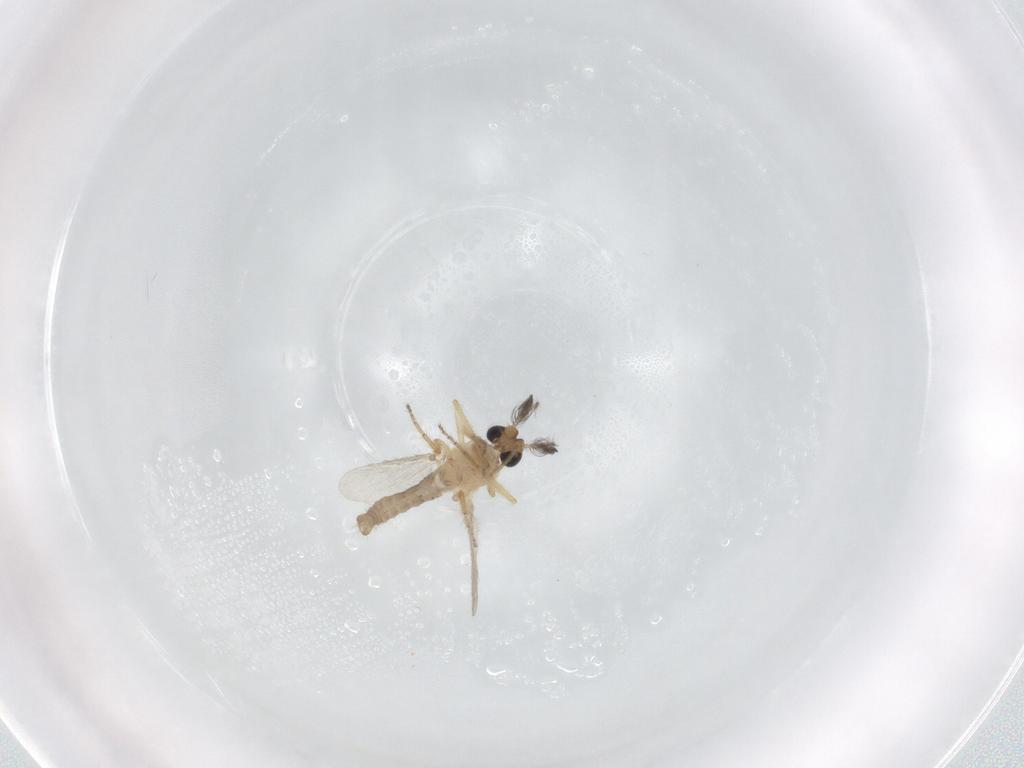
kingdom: Animalia
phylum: Arthropoda
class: Insecta
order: Diptera
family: Ceratopogonidae
